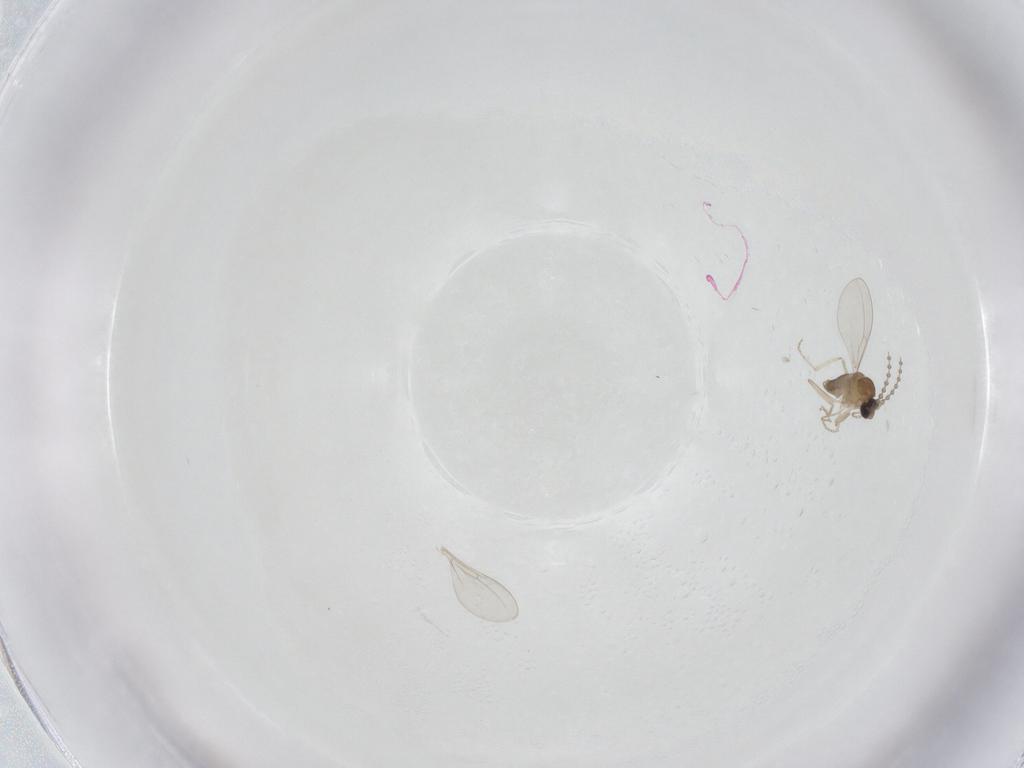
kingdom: Animalia
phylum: Arthropoda
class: Insecta
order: Diptera
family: Cecidomyiidae
